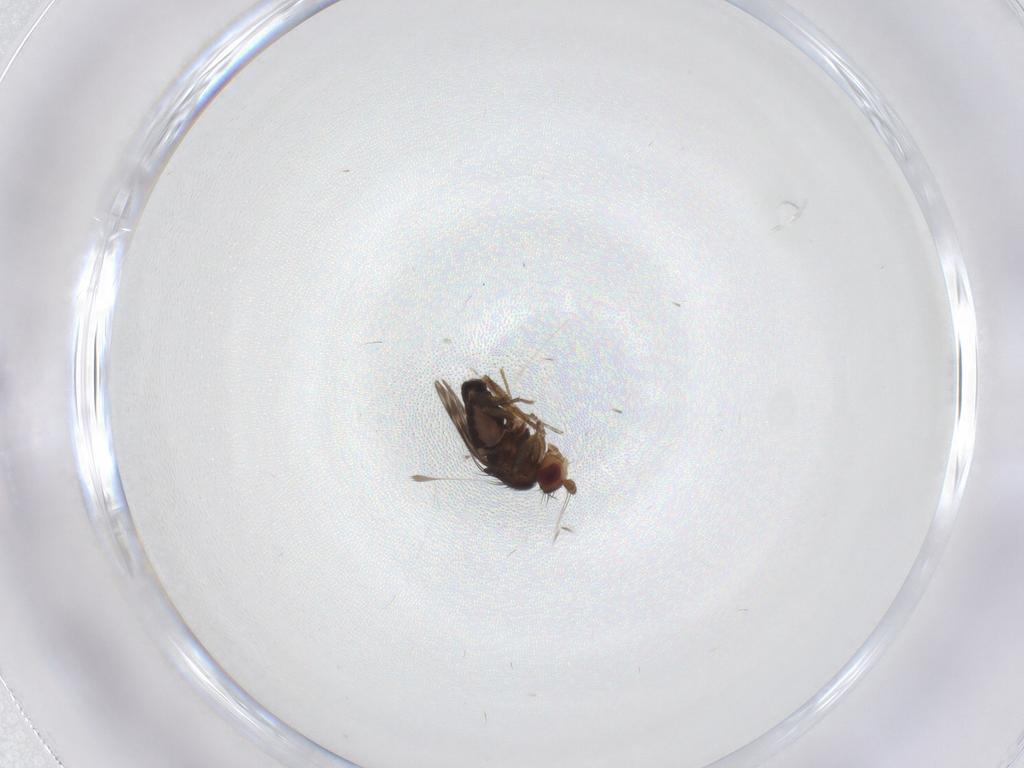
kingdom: Animalia
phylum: Arthropoda
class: Insecta
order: Diptera
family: Sphaeroceridae
